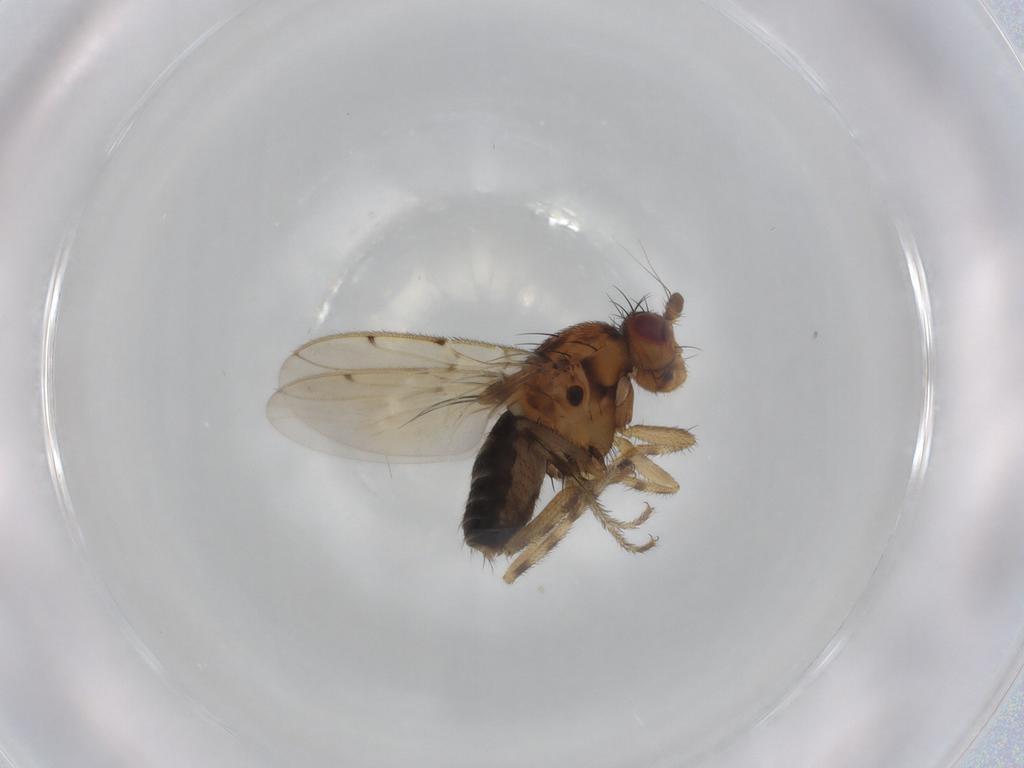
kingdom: Animalia
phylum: Arthropoda
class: Insecta
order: Diptera
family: Sphaeroceridae
